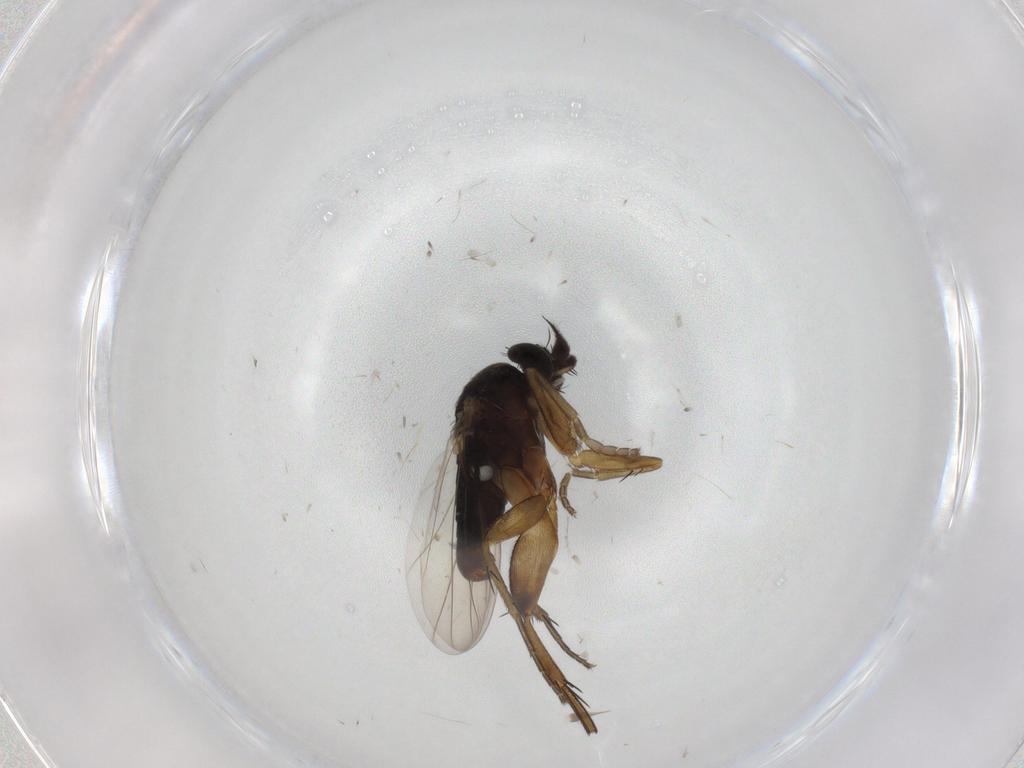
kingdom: Animalia
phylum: Arthropoda
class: Insecta
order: Diptera
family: Phoridae
